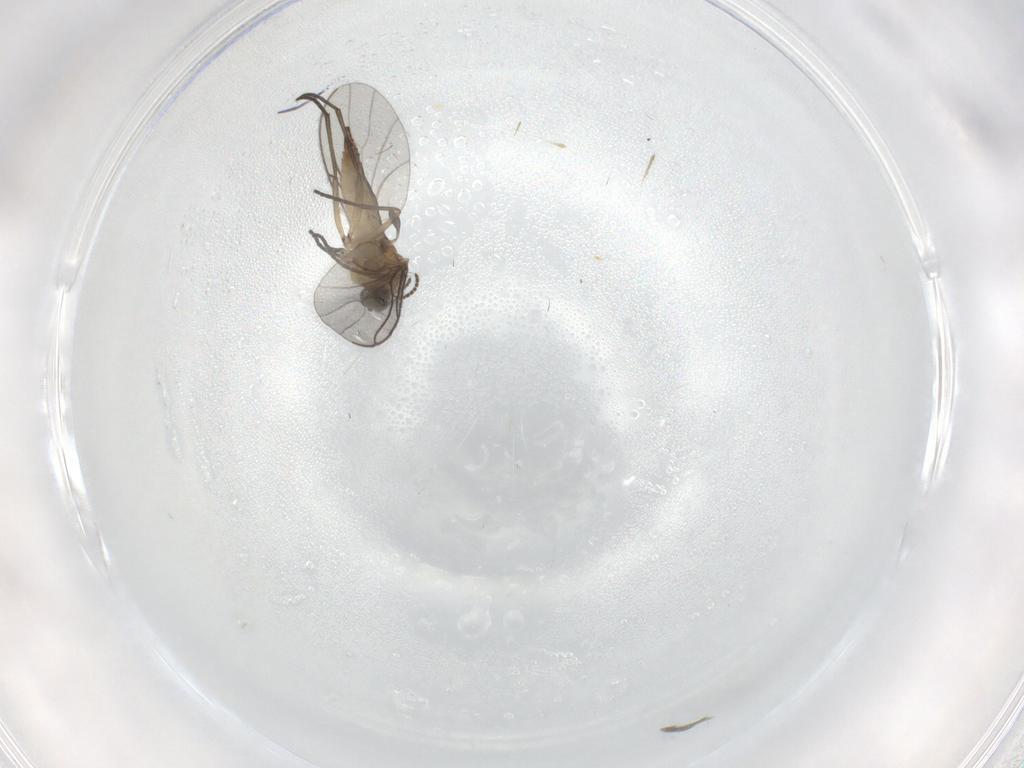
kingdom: Animalia
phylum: Arthropoda
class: Insecta
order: Diptera
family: Sciaridae
